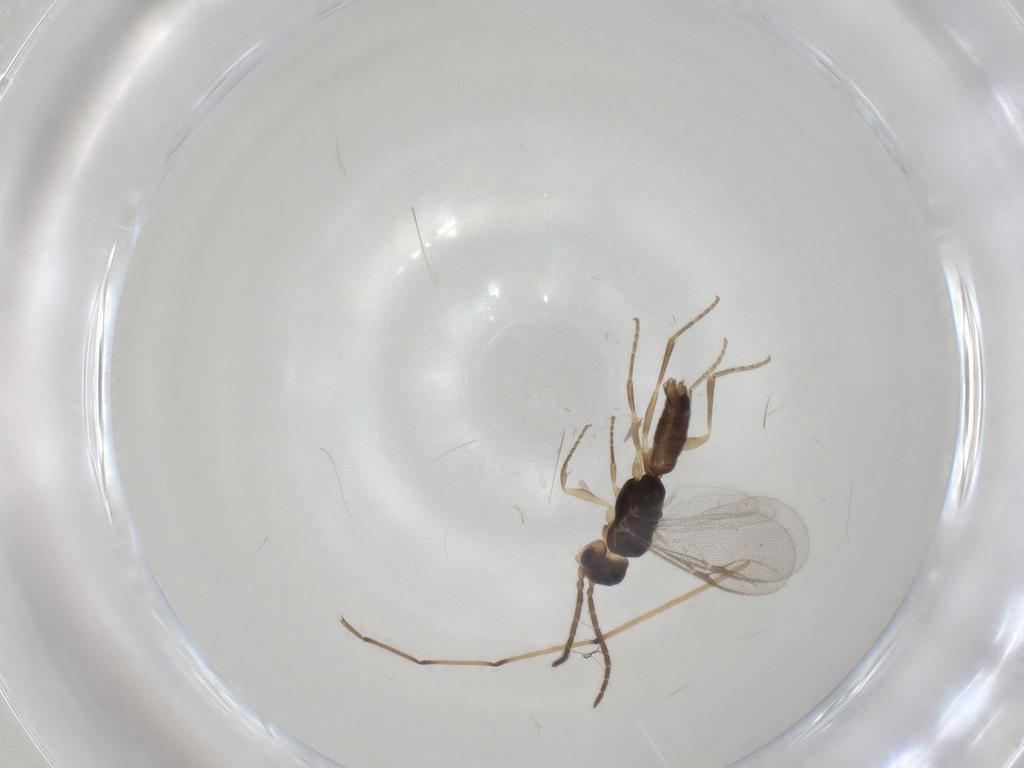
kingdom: Animalia
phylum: Arthropoda
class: Insecta
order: Hymenoptera
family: Dryinidae
